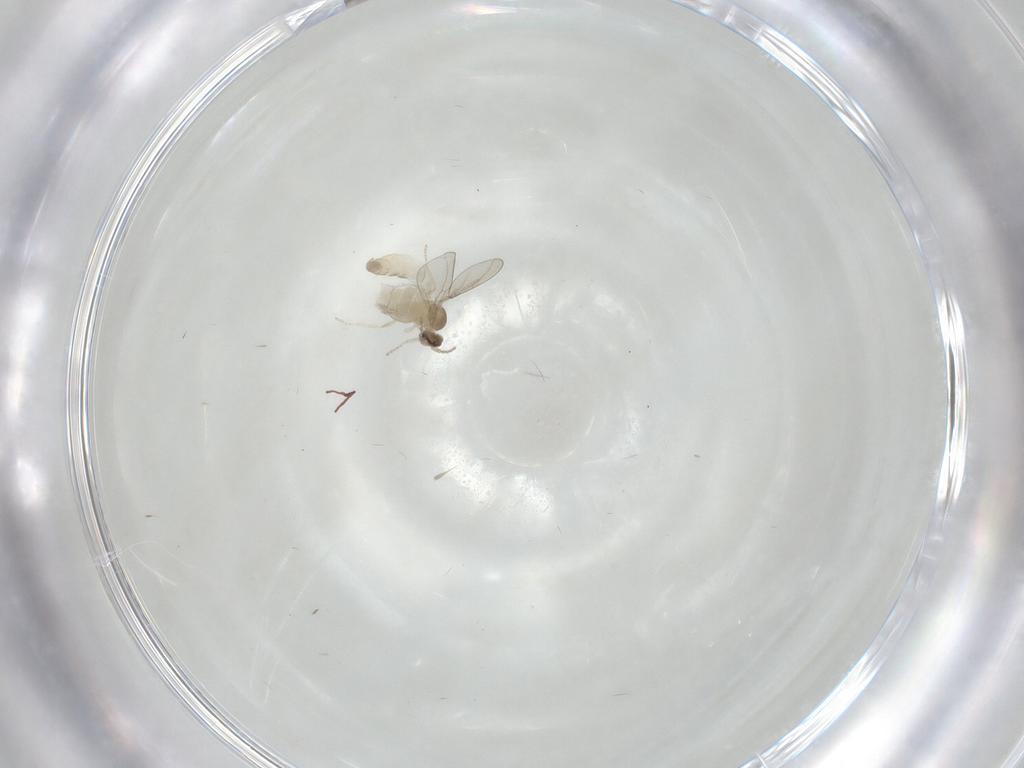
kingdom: Animalia
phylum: Arthropoda
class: Insecta
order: Diptera
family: Cecidomyiidae
